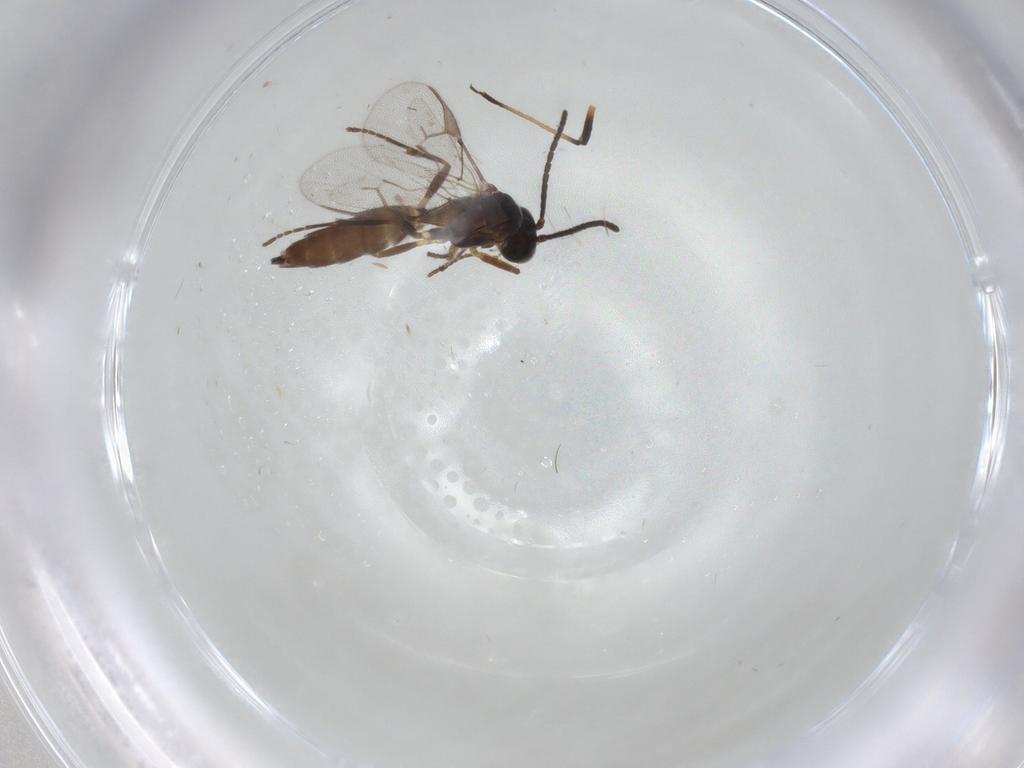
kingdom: Animalia
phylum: Arthropoda
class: Insecta
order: Hymenoptera
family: Braconidae
